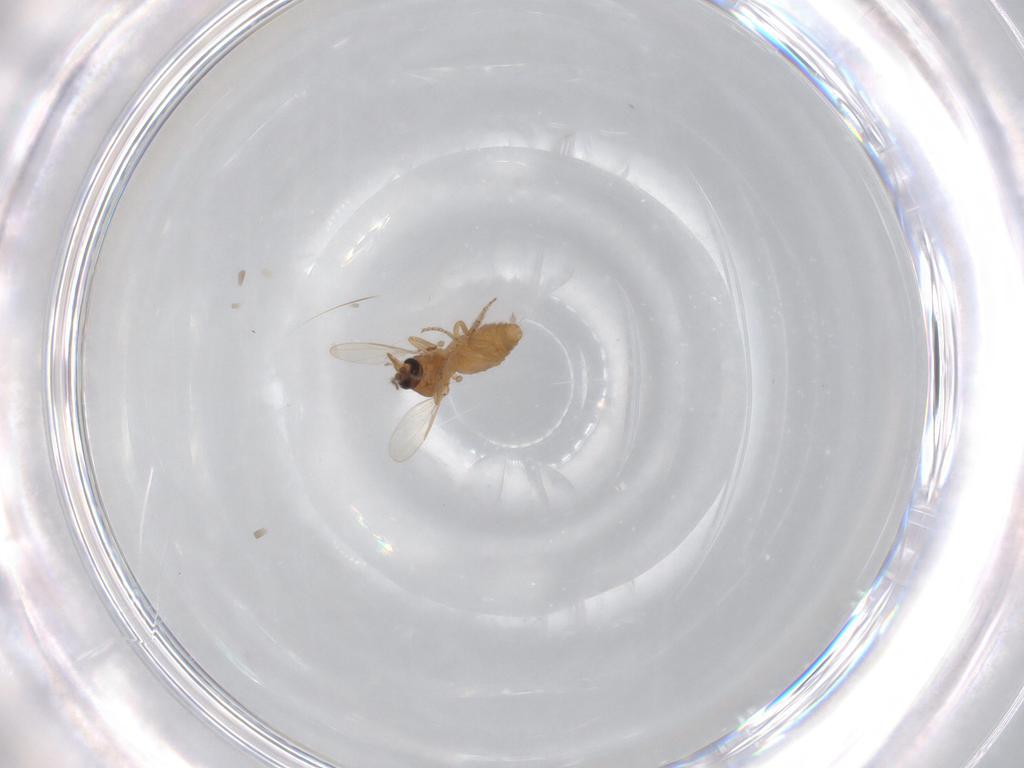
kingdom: Animalia
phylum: Arthropoda
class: Insecta
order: Diptera
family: Ceratopogonidae
